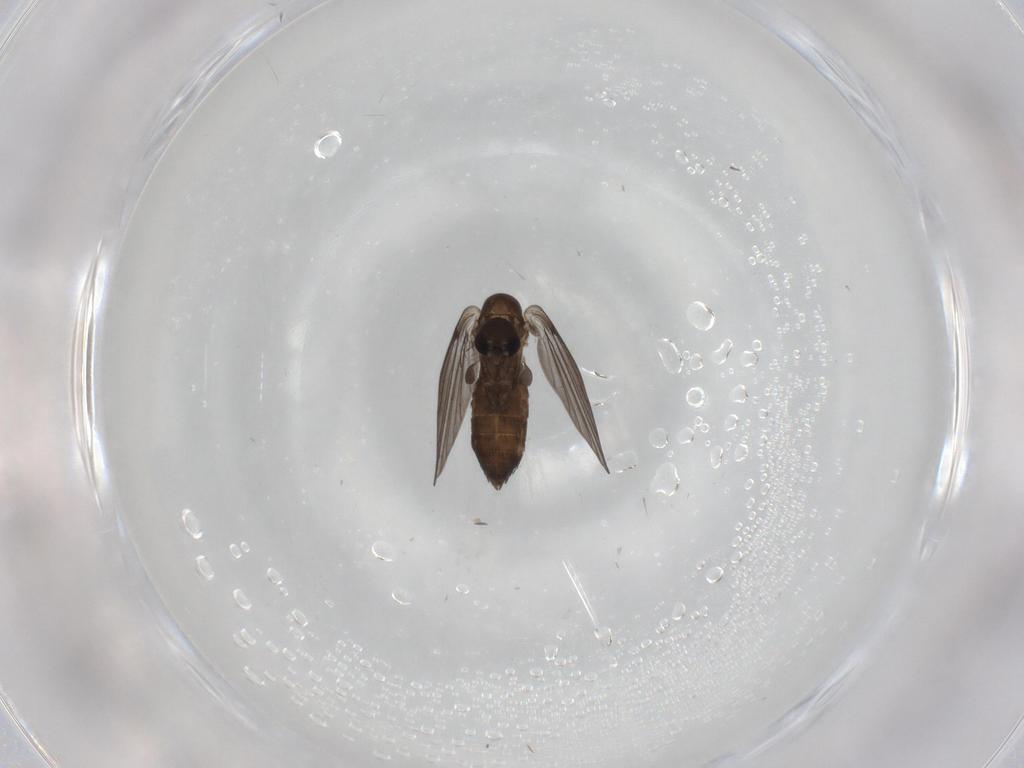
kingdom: Animalia
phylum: Arthropoda
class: Insecta
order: Diptera
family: Psychodidae
